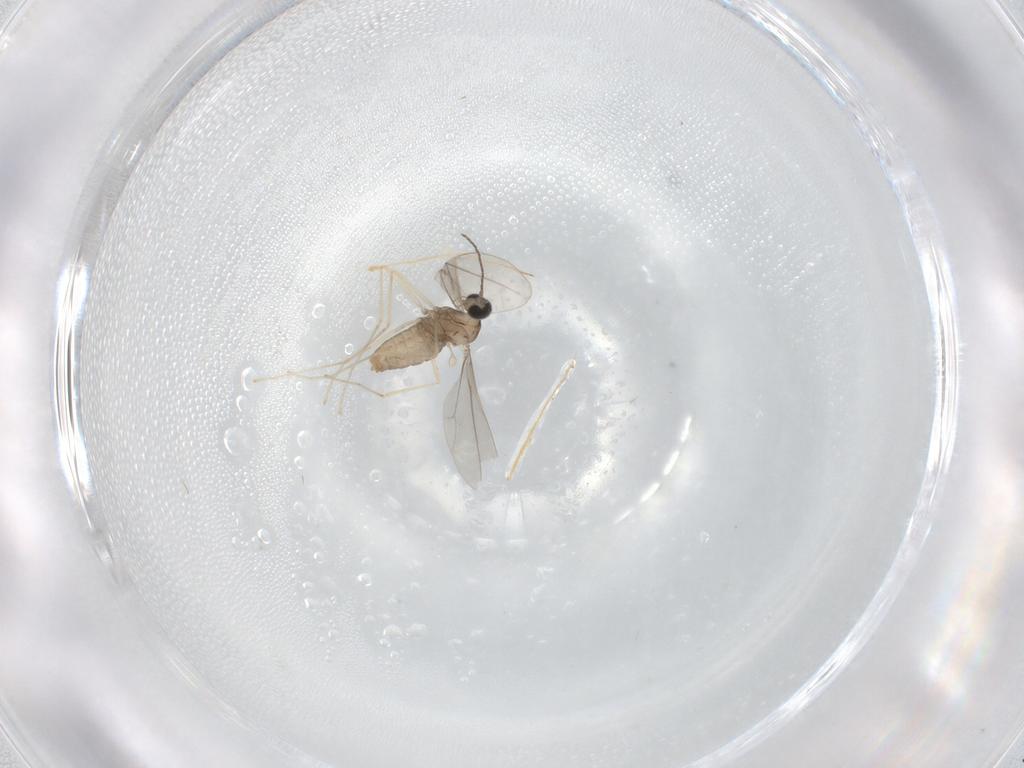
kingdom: Animalia
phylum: Arthropoda
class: Insecta
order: Diptera
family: Cecidomyiidae
